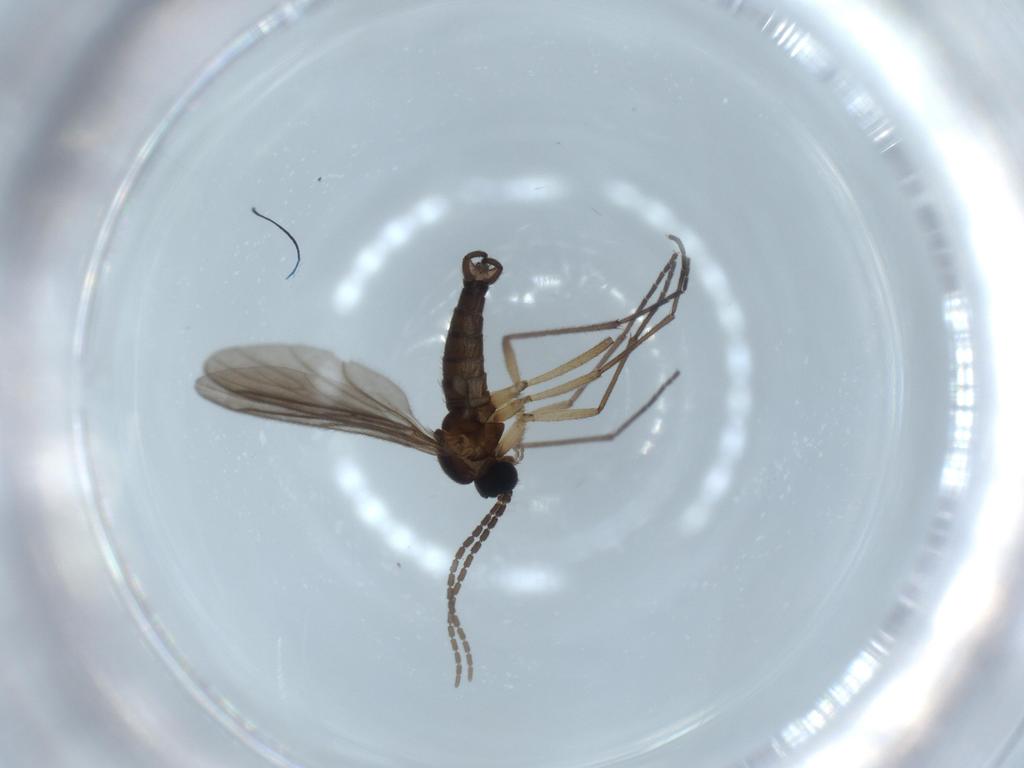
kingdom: Animalia
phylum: Arthropoda
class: Insecta
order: Diptera
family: Sciaridae
